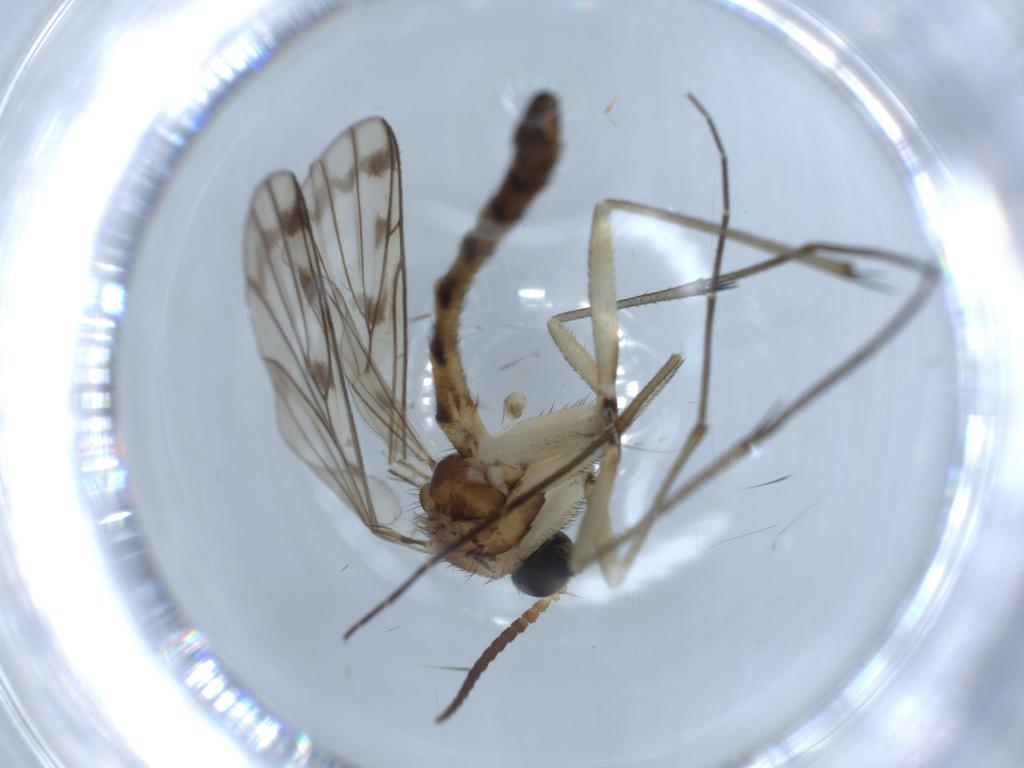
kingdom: Animalia
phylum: Arthropoda
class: Insecta
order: Diptera
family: Keroplatidae
